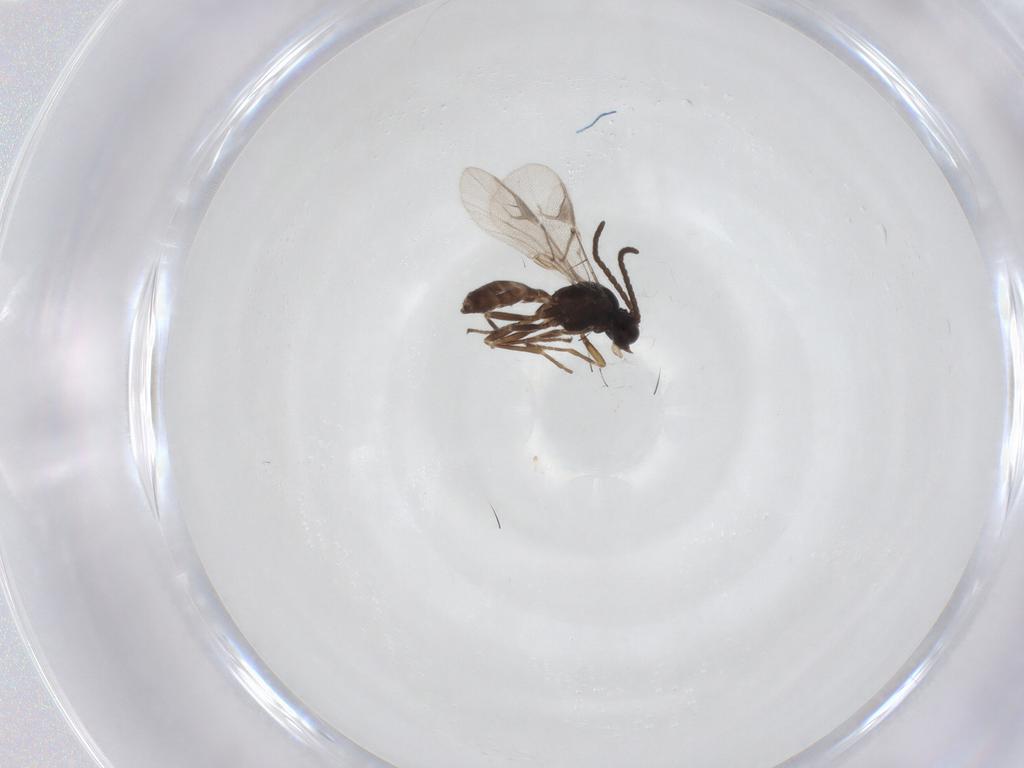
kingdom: Animalia
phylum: Arthropoda
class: Insecta
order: Hymenoptera
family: Braconidae
